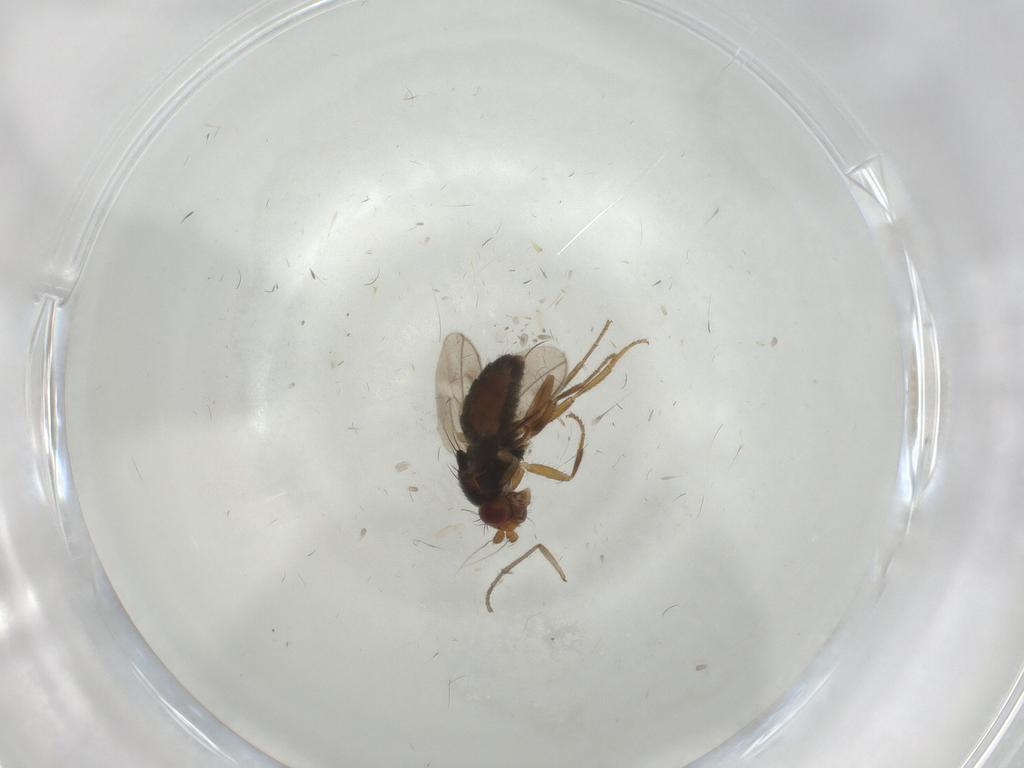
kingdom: Animalia
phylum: Arthropoda
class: Insecta
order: Diptera
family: Sphaeroceridae
